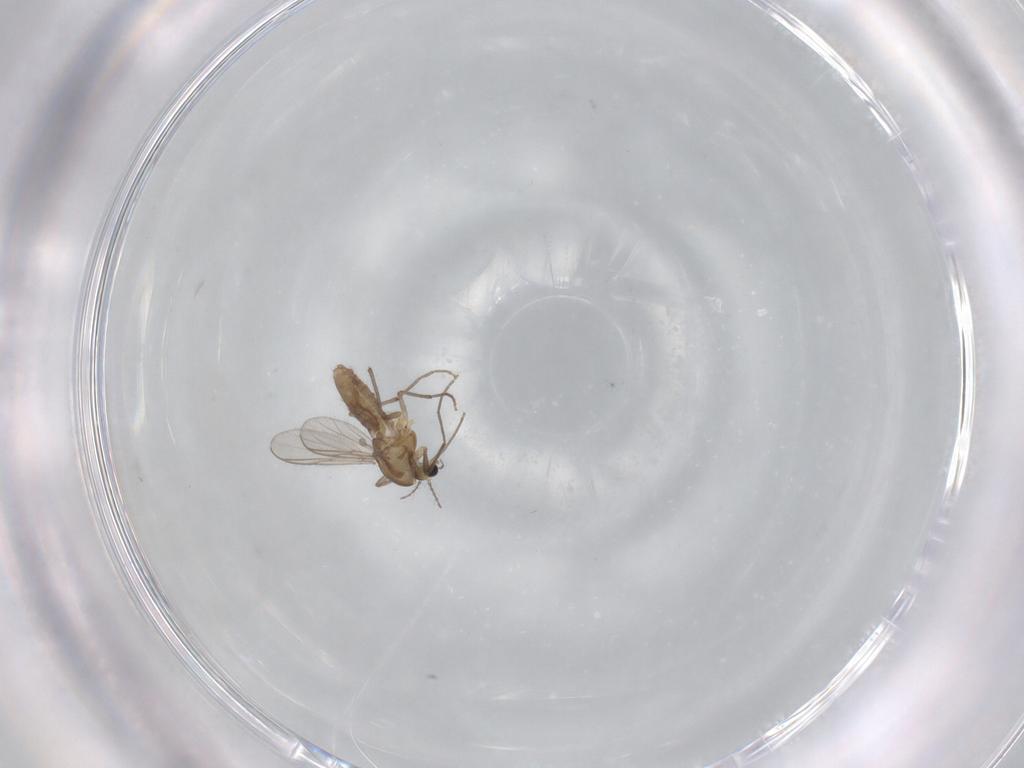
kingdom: Animalia
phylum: Arthropoda
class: Insecta
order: Diptera
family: Chironomidae
